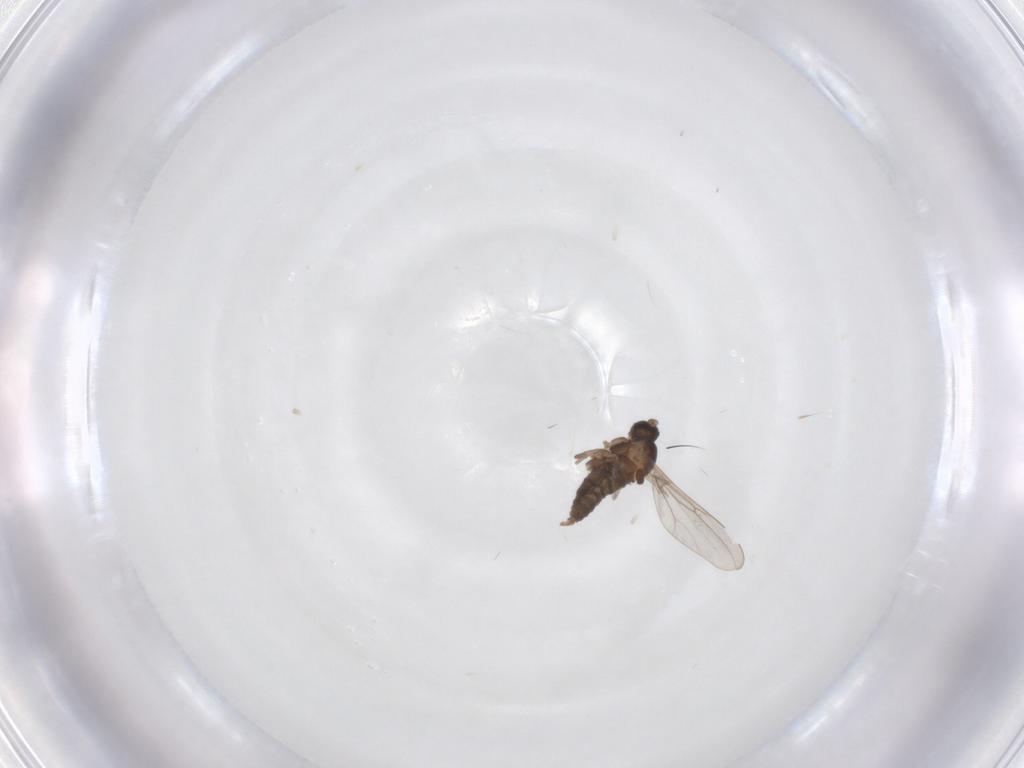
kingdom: Animalia
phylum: Arthropoda
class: Insecta
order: Diptera
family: Cecidomyiidae
